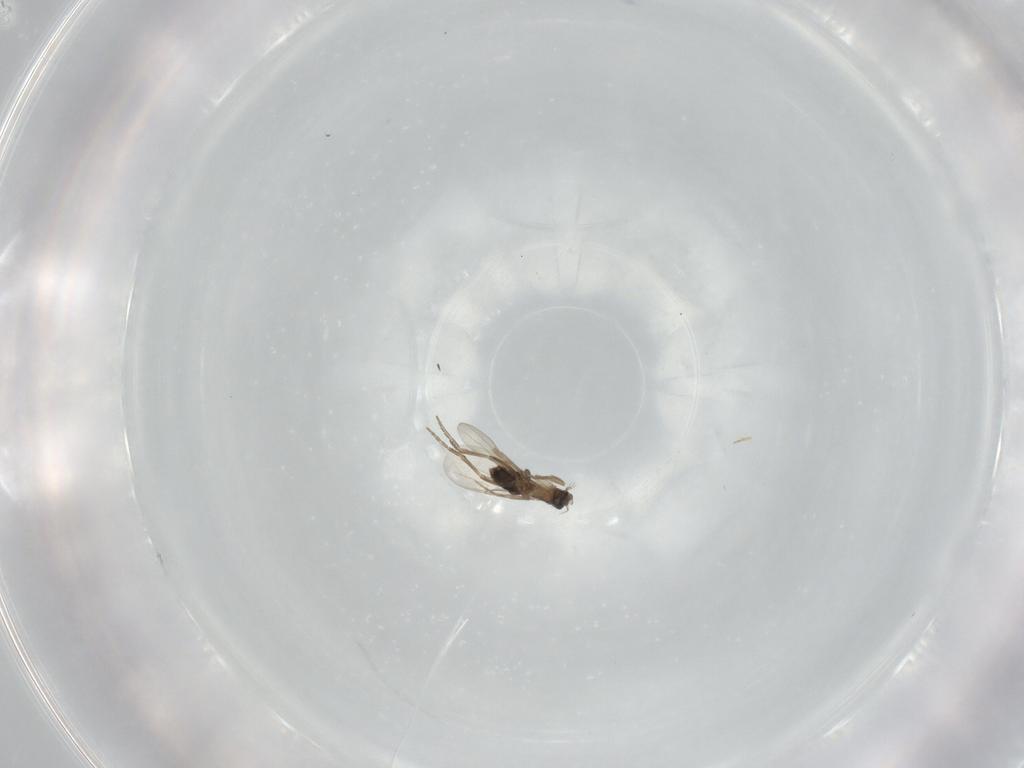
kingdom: Animalia
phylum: Arthropoda
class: Insecta
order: Diptera
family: Phoridae
